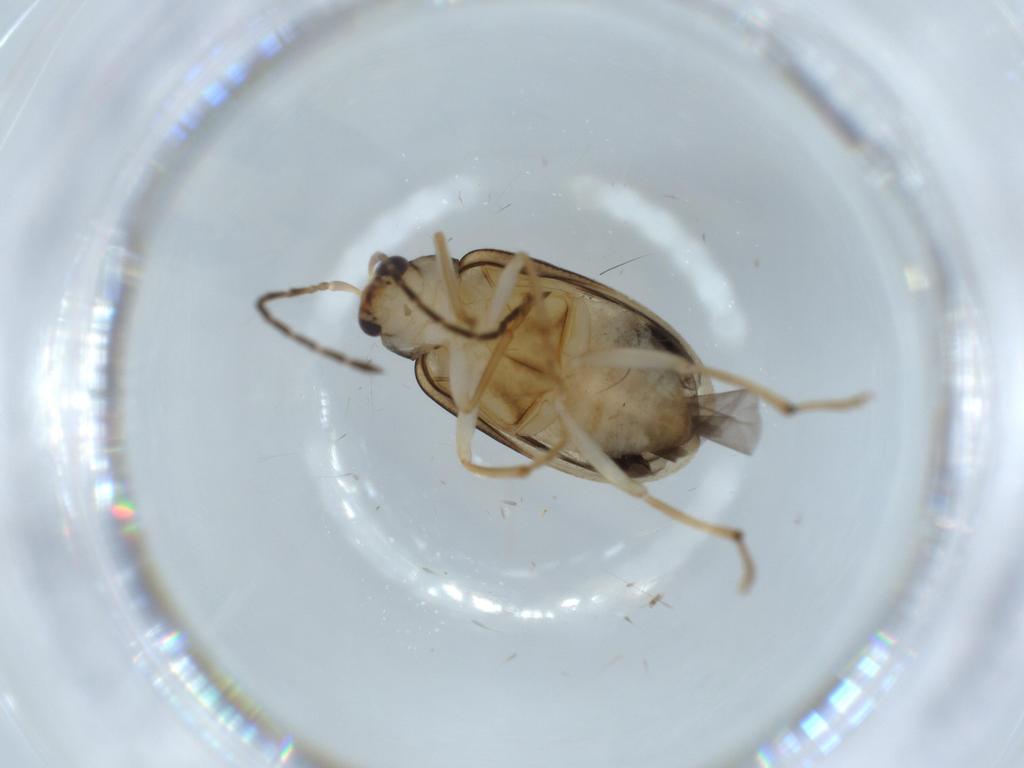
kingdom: Animalia
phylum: Arthropoda
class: Insecta
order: Coleoptera
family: Chrysomelidae
